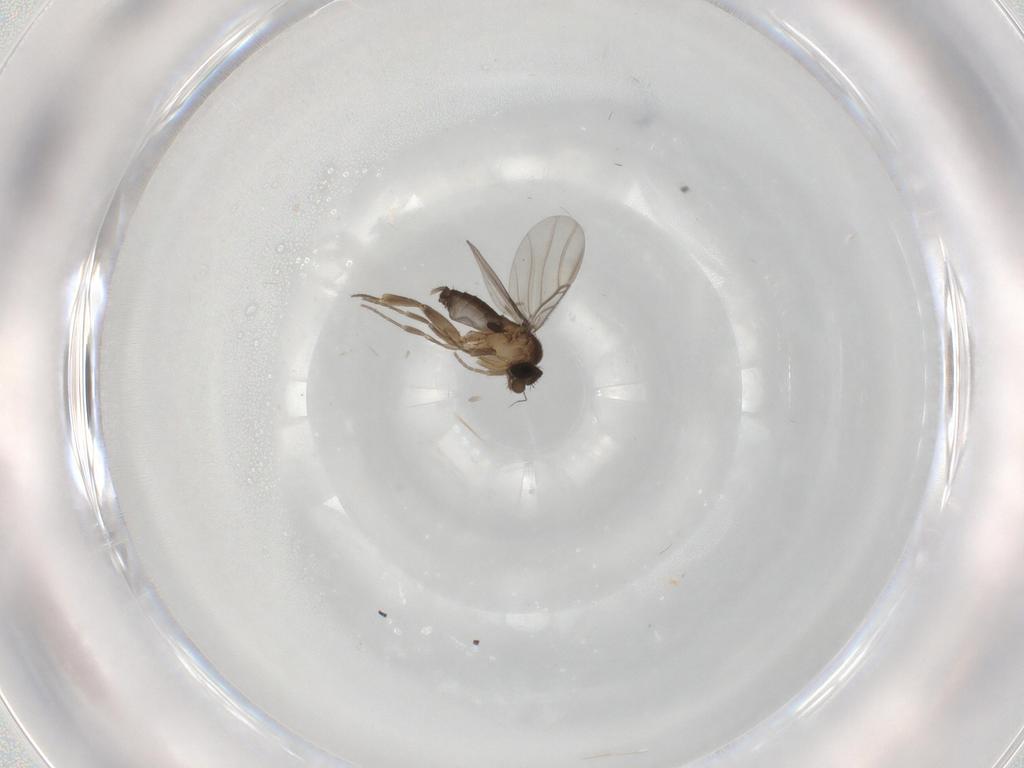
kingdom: Animalia
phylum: Arthropoda
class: Insecta
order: Diptera
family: Phoridae
